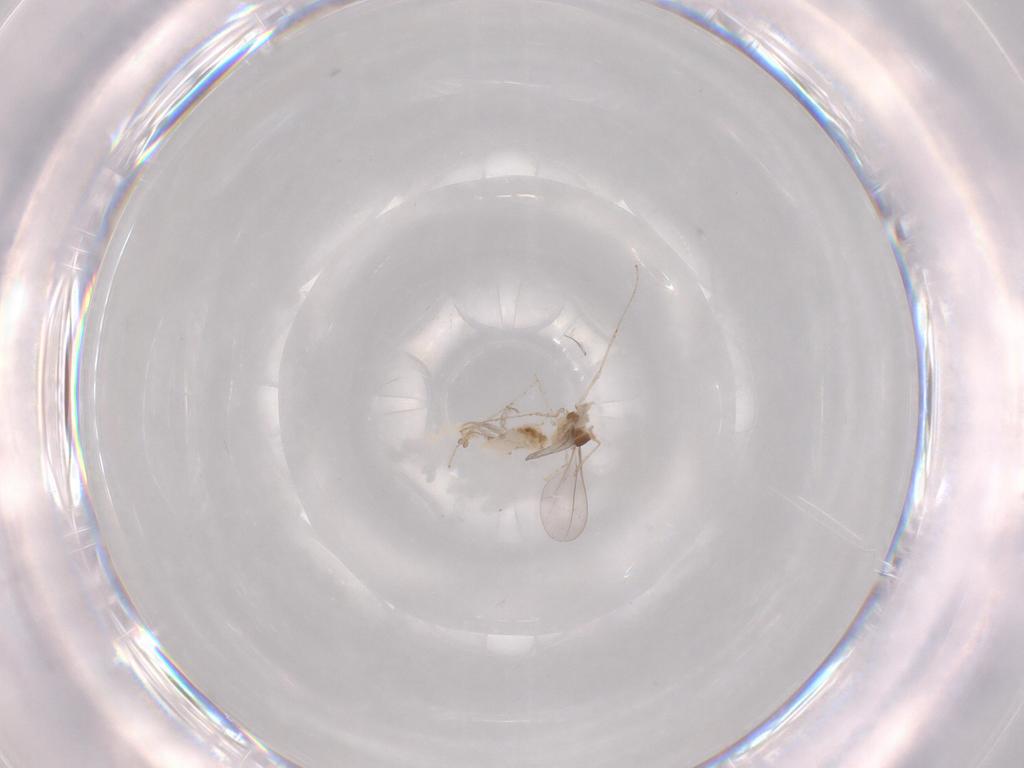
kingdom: Animalia
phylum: Arthropoda
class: Insecta
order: Diptera
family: Cecidomyiidae
